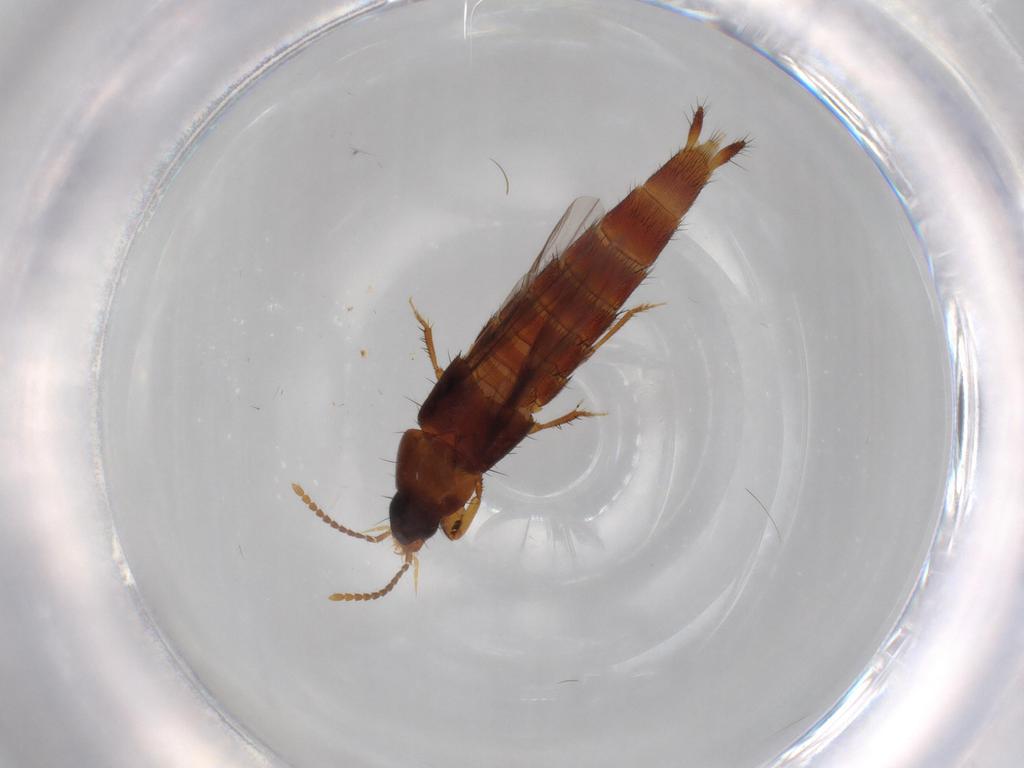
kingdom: Animalia
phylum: Arthropoda
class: Insecta
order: Coleoptera
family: Staphylinidae
